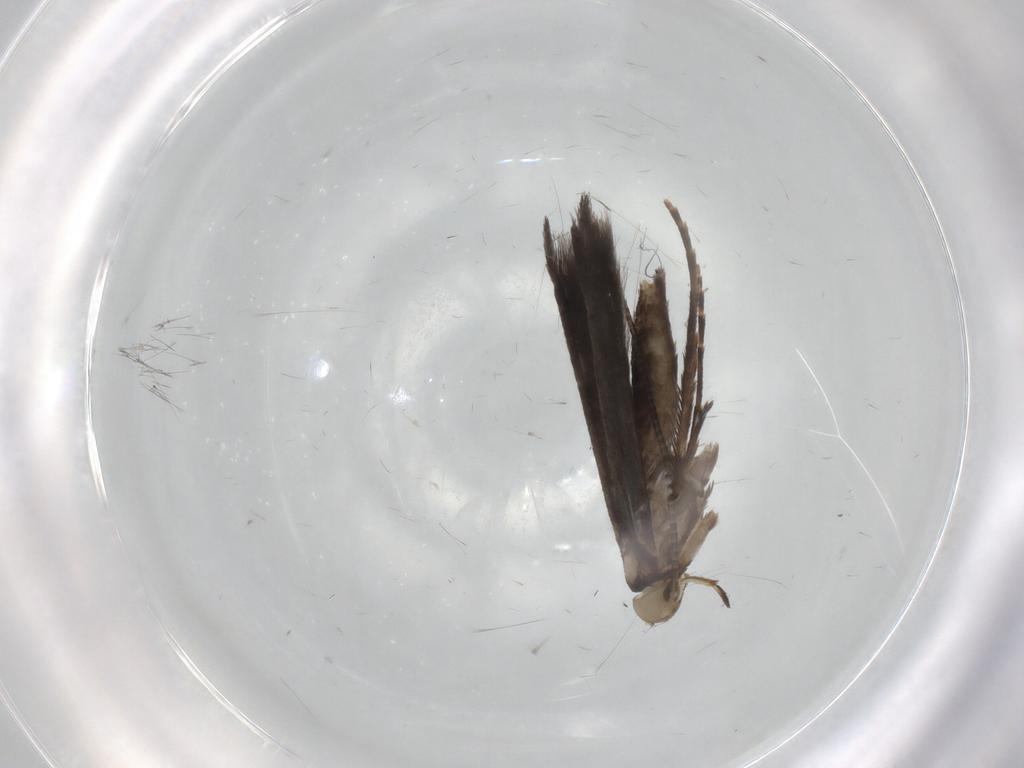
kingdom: Animalia
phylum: Arthropoda
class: Insecta
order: Lepidoptera
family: Gracillariidae
